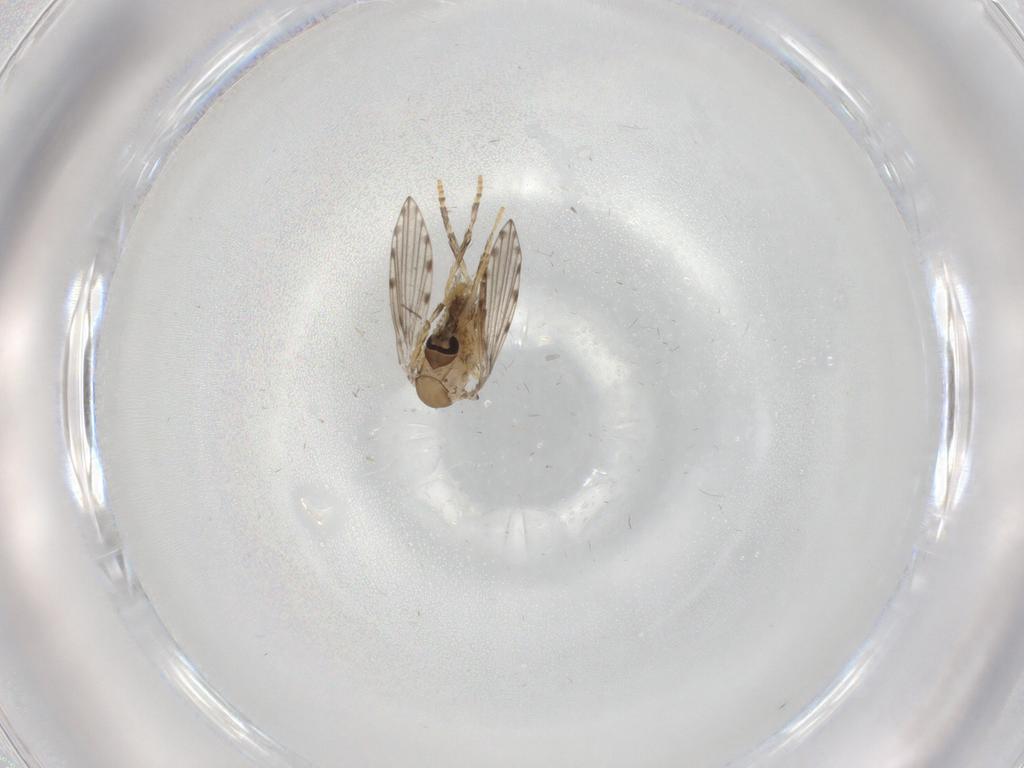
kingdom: Animalia
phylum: Arthropoda
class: Insecta
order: Diptera
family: Psychodidae
